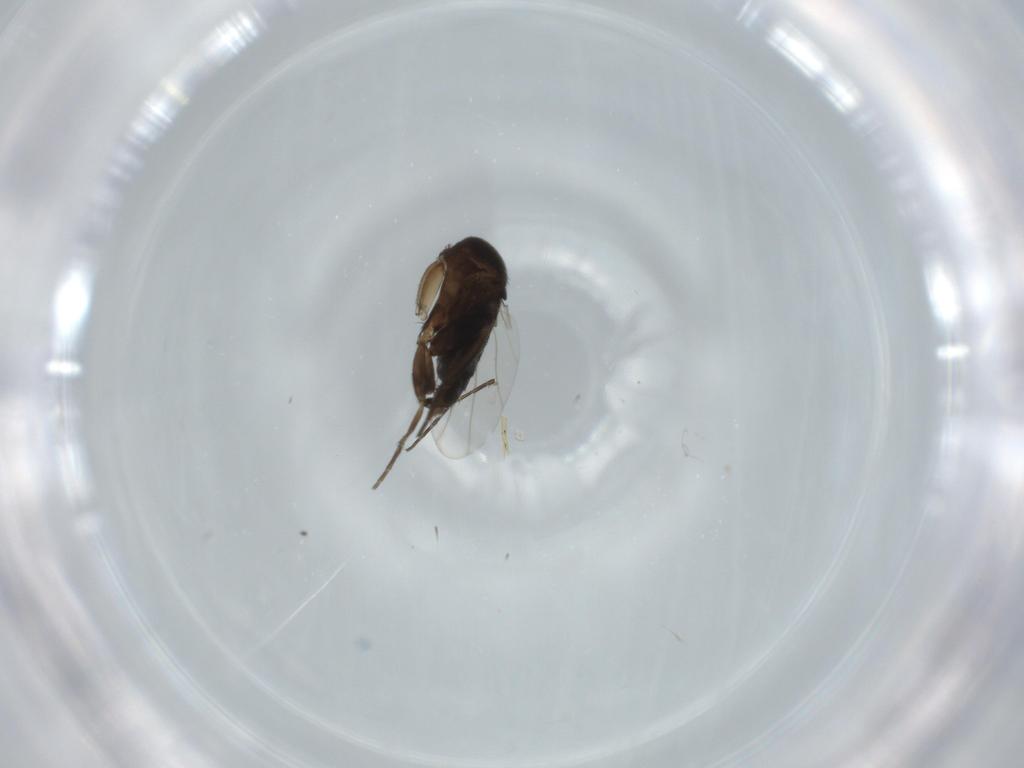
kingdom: Animalia
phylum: Arthropoda
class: Insecta
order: Diptera
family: Phoridae
